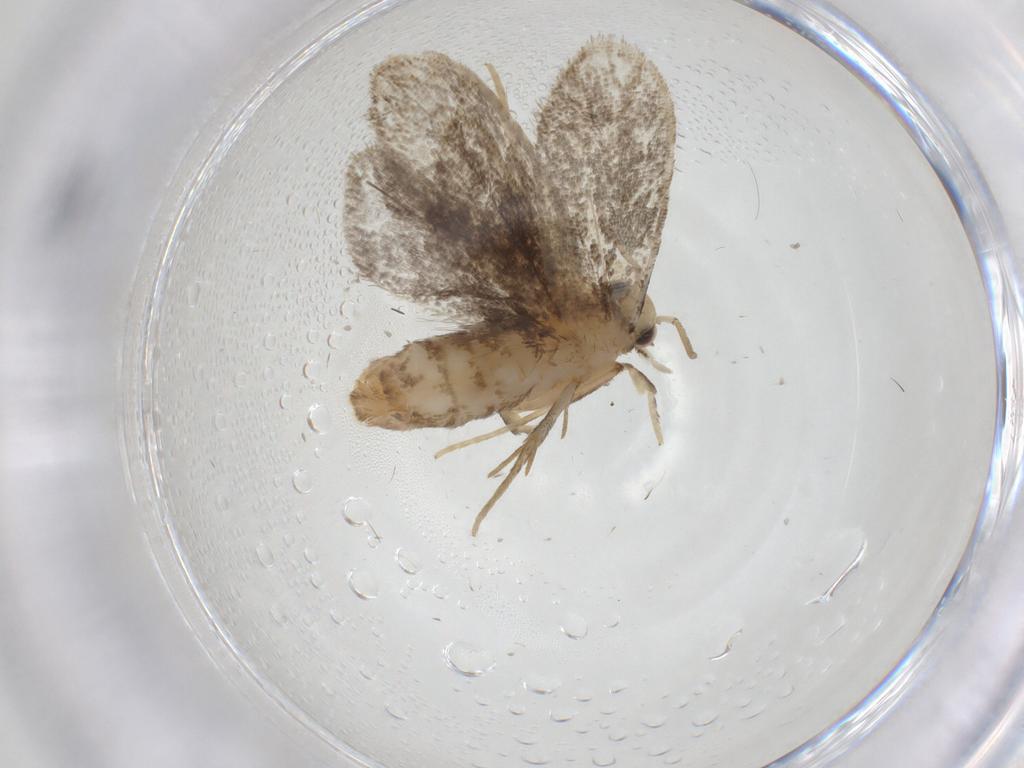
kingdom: Animalia
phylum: Arthropoda
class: Insecta
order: Lepidoptera
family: Dryadaulidae
